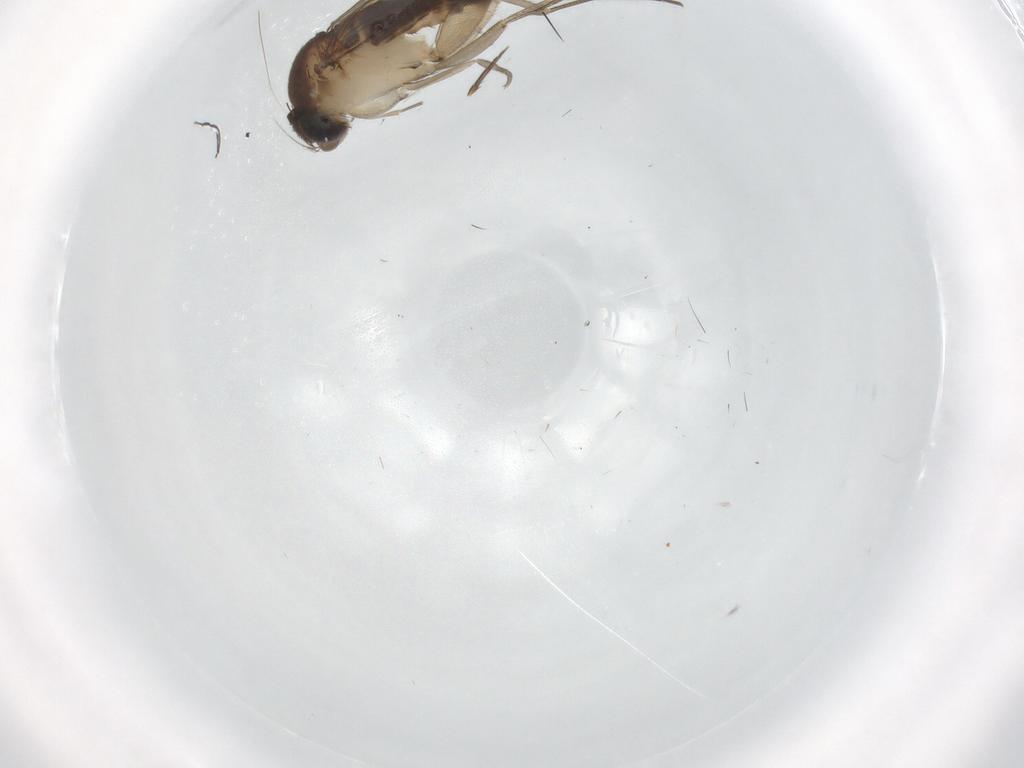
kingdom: Animalia
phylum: Arthropoda
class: Insecta
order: Diptera
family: Phoridae
